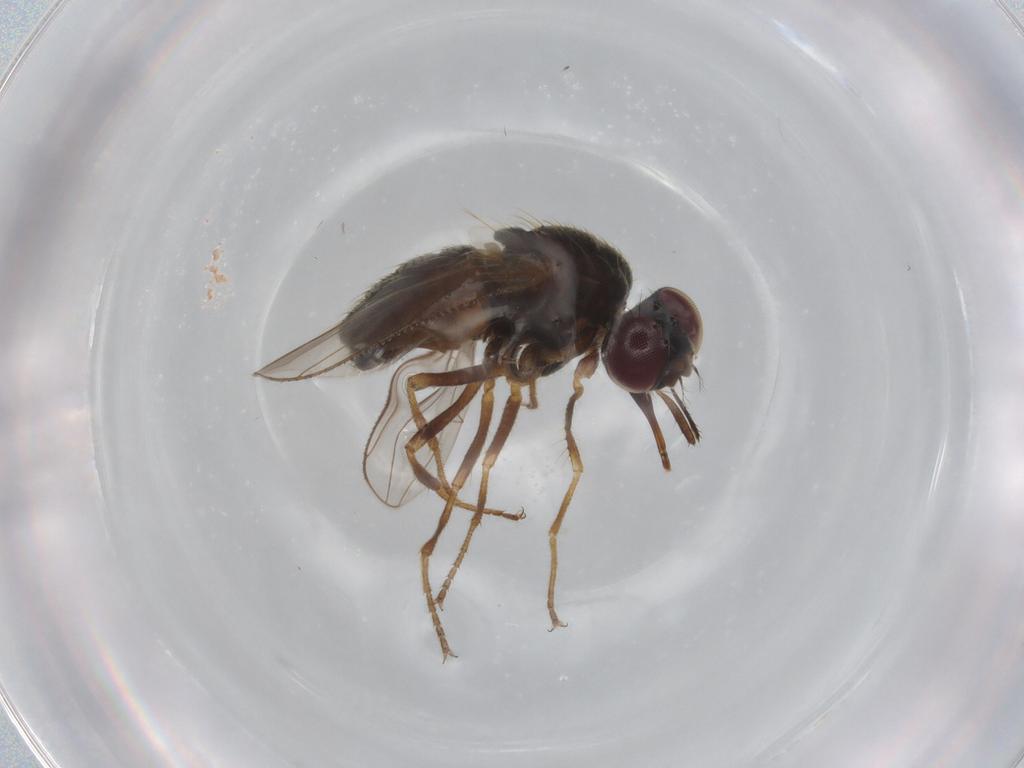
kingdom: Animalia
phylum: Arthropoda
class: Insecta
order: Diptera
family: Muscidae
